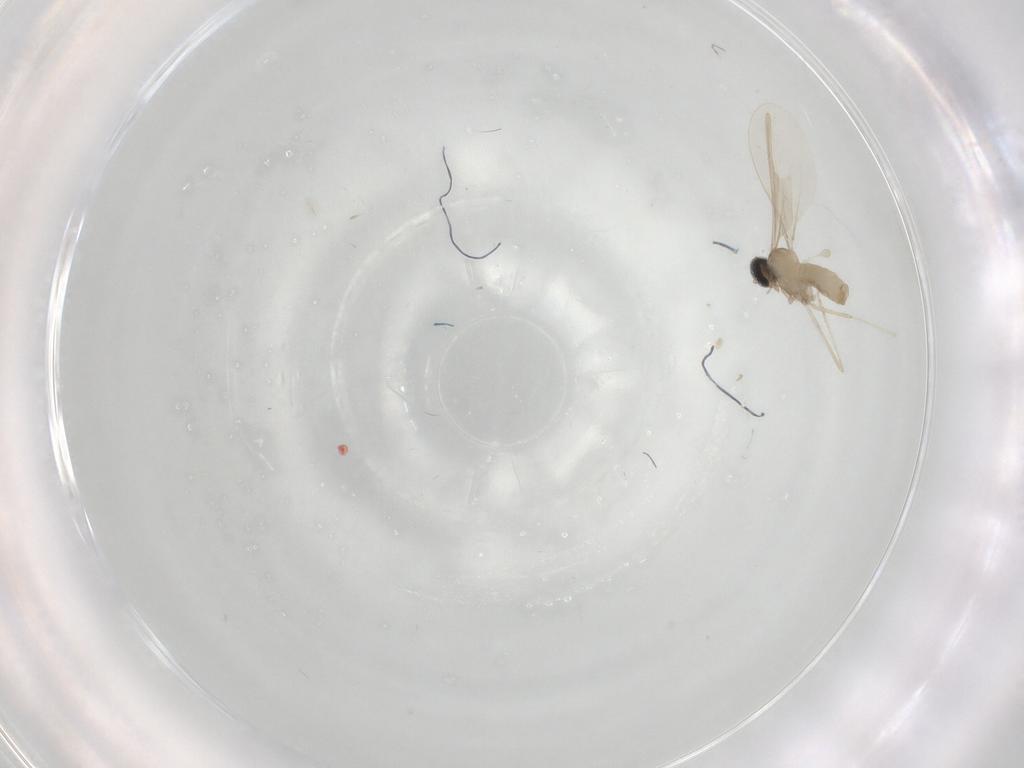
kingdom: Animalia
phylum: Arthropoda
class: Insecta
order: Diptera
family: Cecidomyiidae
